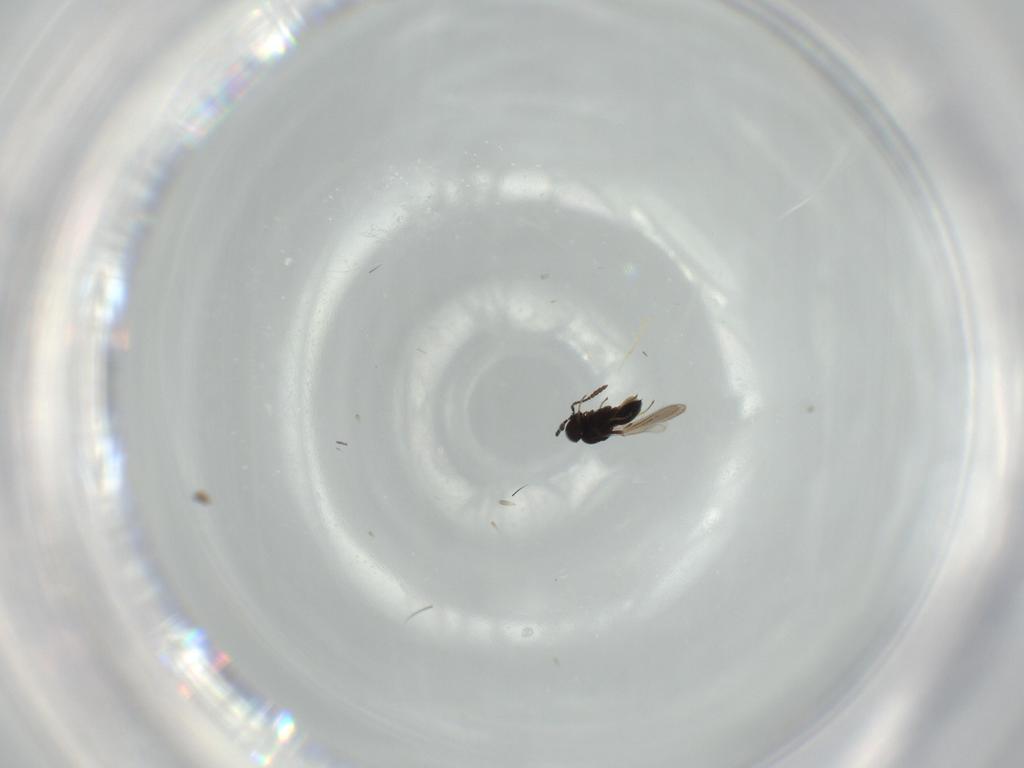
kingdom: Animalia
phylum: Arthropoda
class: Insecta
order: Hymenoptera
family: Scelionidae
